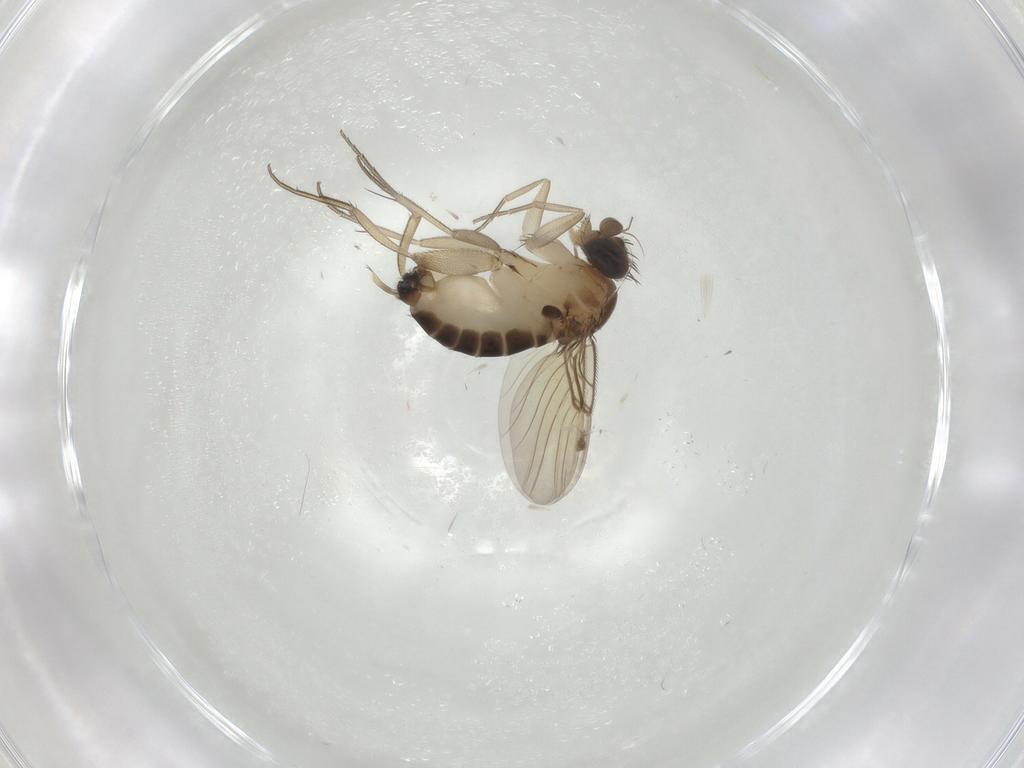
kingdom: Animalia
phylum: Arthropoda
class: Insecta
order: Diptera
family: Phoridae
